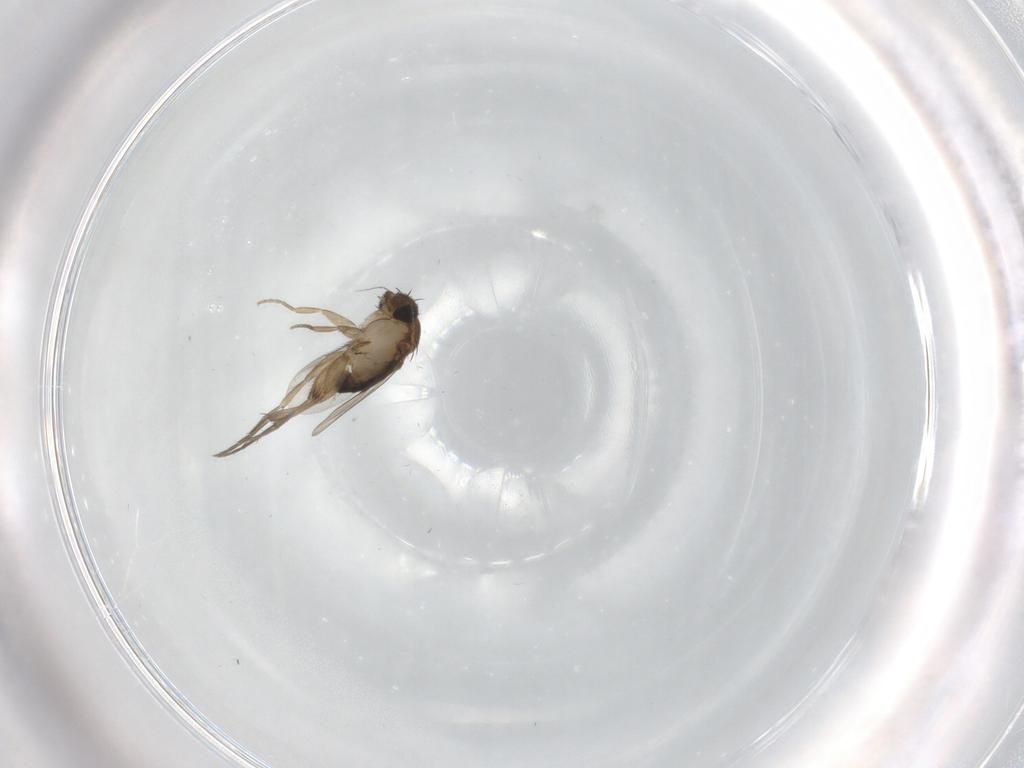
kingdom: Animalia
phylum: Arthropoda
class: Insecta
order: Diptera
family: Phoridae
